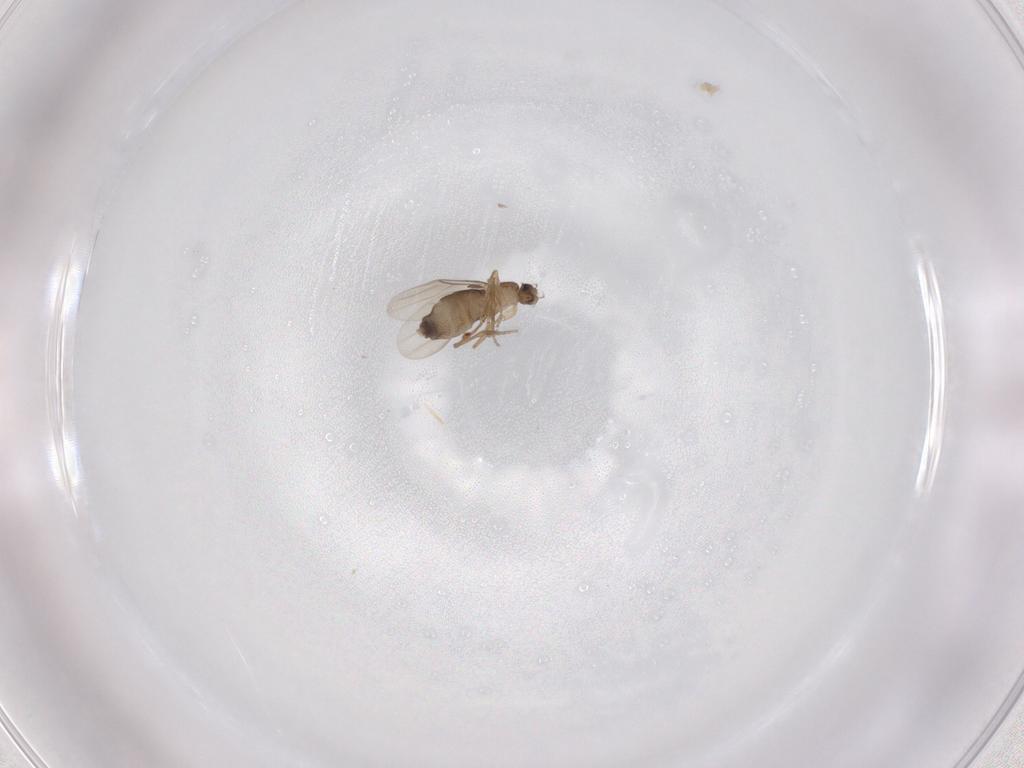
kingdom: Animalia
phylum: Arthropoda
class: Insecta
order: Diptera
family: Phoridae
